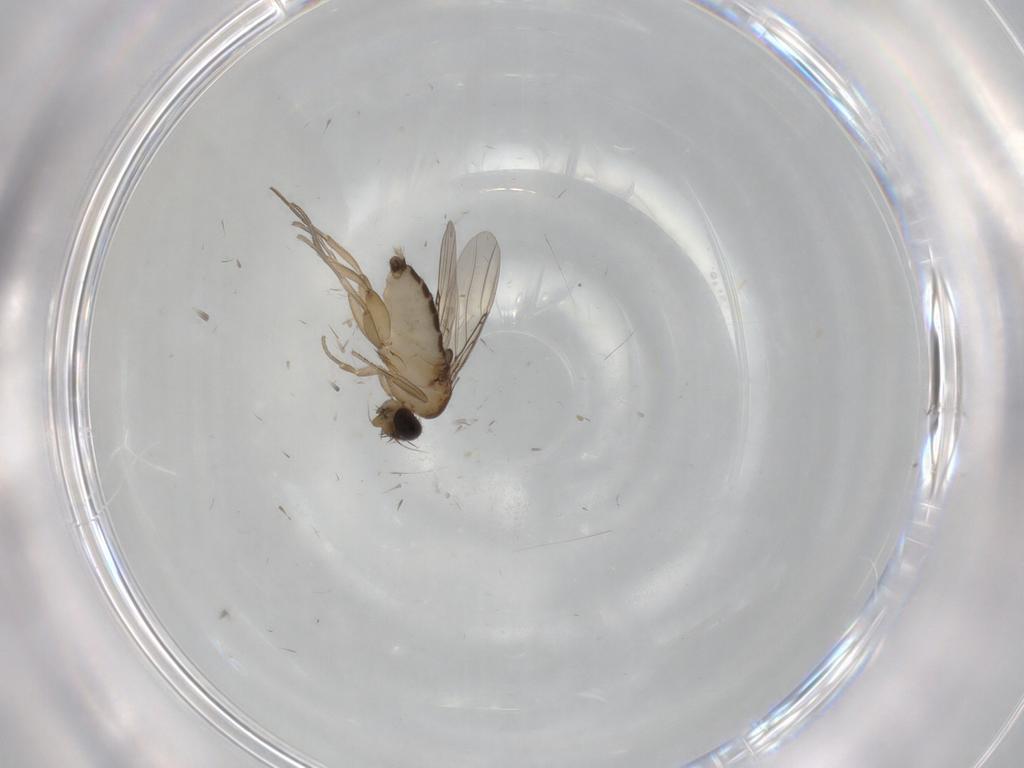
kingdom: Animalia
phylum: Arthropoda
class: Insecta
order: Diptera
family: Phoridae
